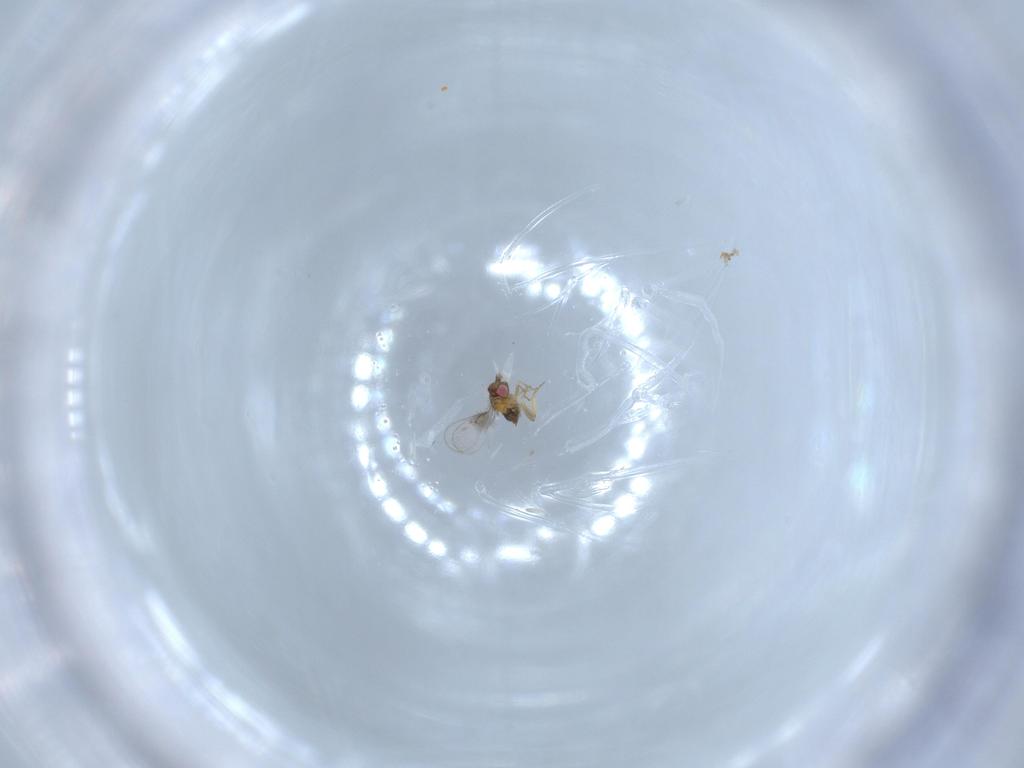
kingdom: Animalia
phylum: Arthropoda
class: Insecta
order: Hymenoptera
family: Trichogrammatidae
